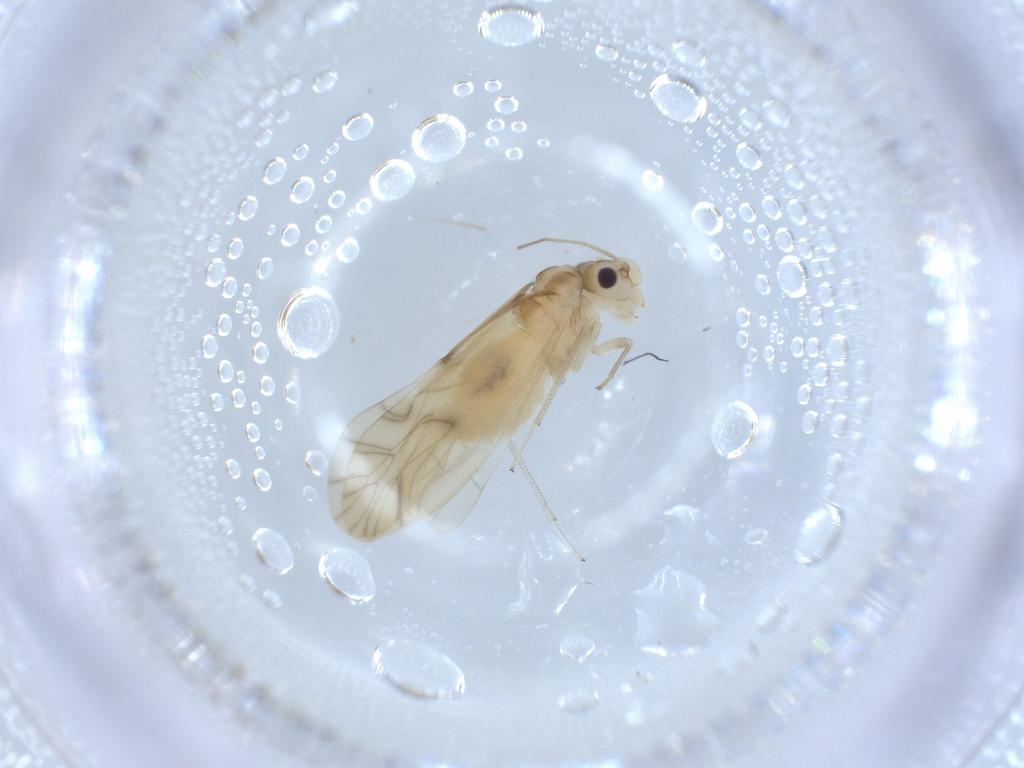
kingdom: Animalia
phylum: Arthropoda
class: Insecta
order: Psocodea
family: Caeciliusidae
